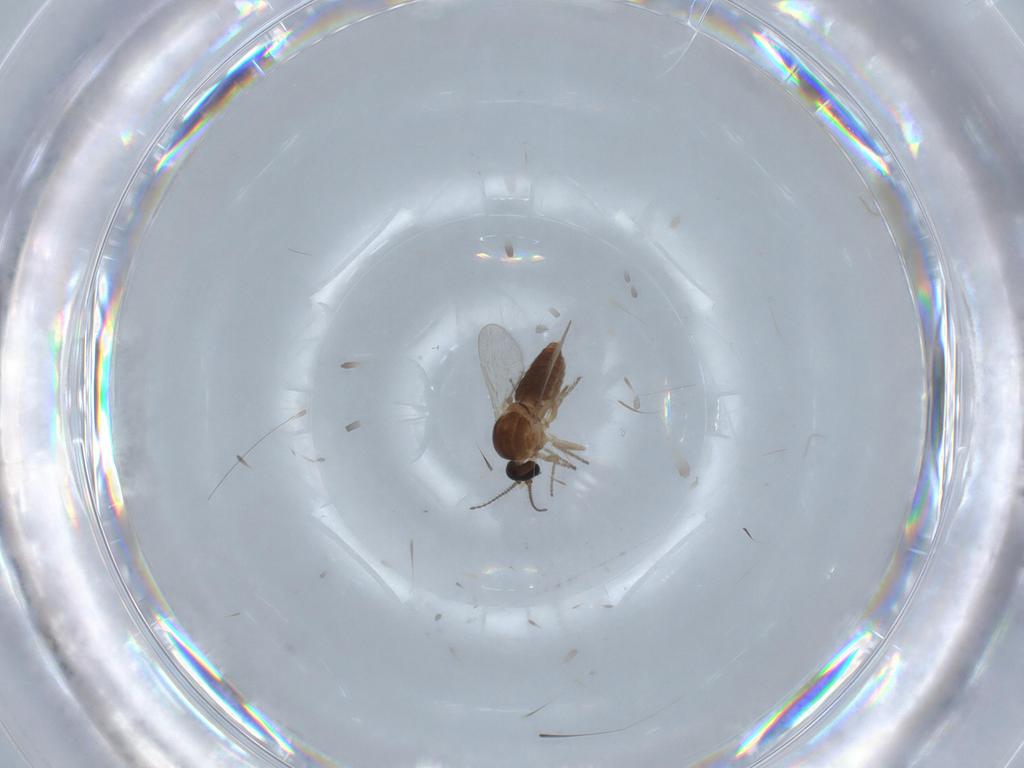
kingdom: Animalia
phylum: Arthropoda
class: Insecta
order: Diptera
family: Ceratopogonidae
